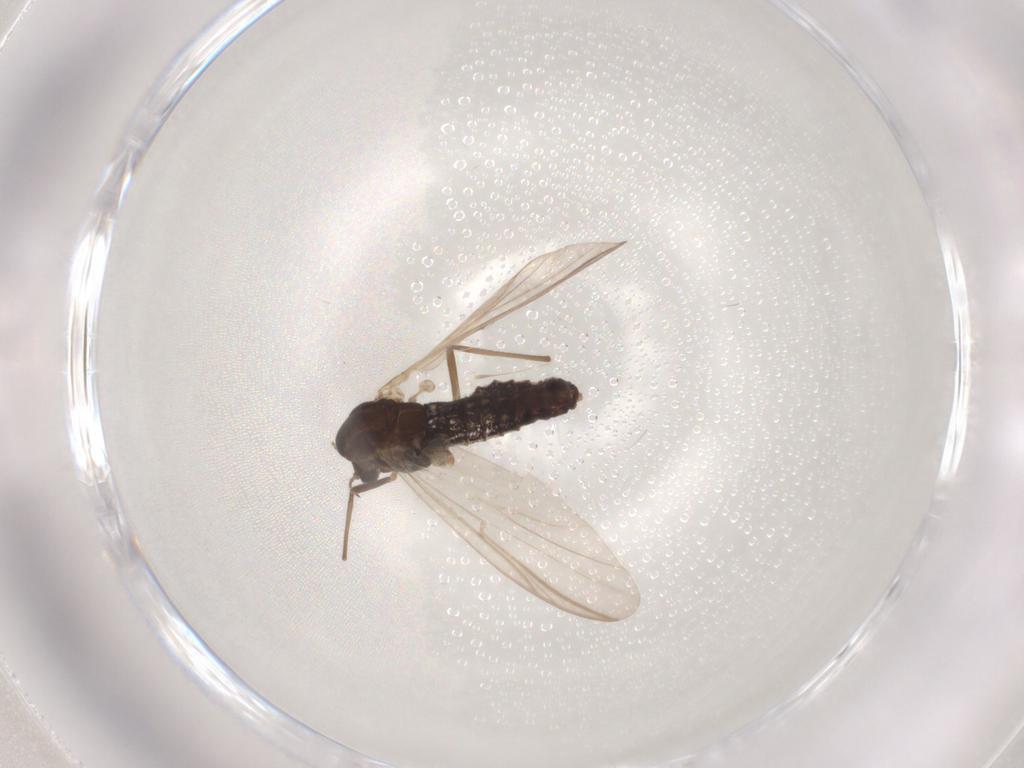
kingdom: Animalia
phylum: Arthropoda
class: Insecta
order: Diptera
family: Chironomidae
